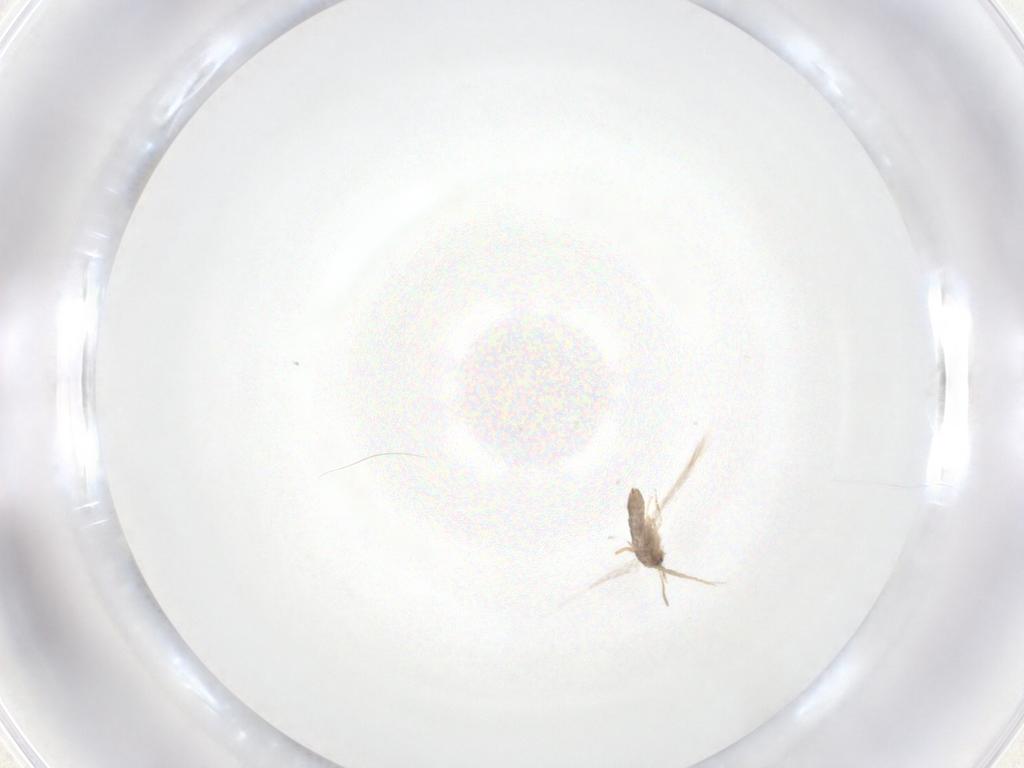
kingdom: Animalia
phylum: Arthropoda
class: Insecta
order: Lepidoptera
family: Nepticulidae
